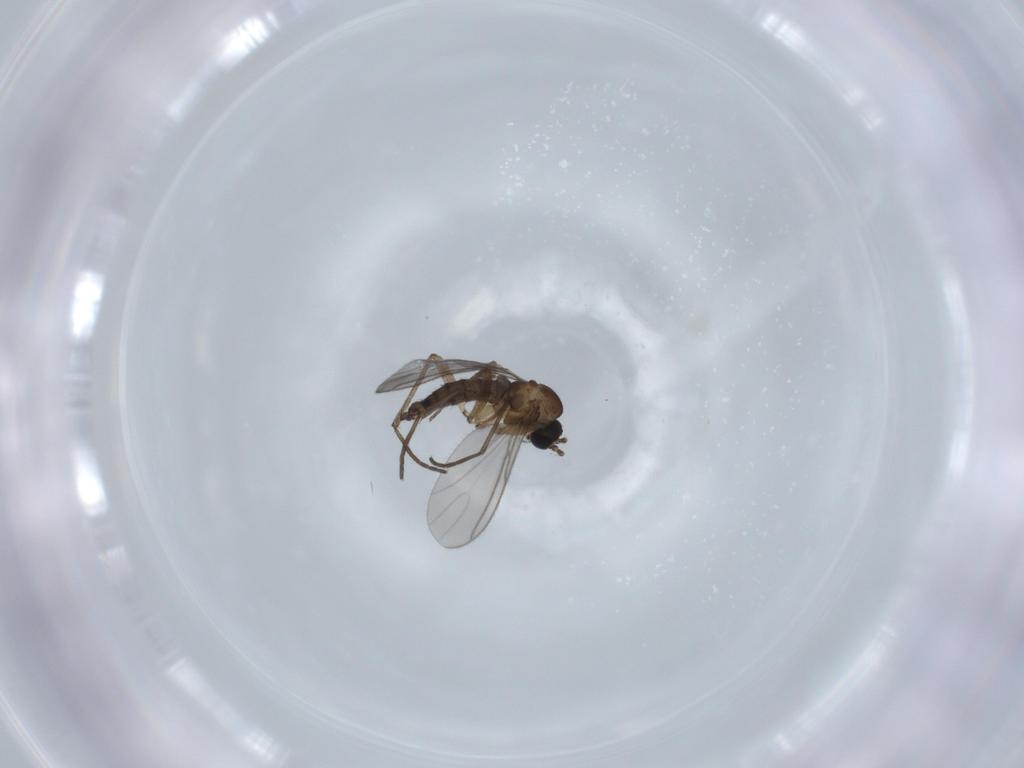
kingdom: Animalia
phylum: Arthropoda
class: Insecta
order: Diptera
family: Sciaridae
